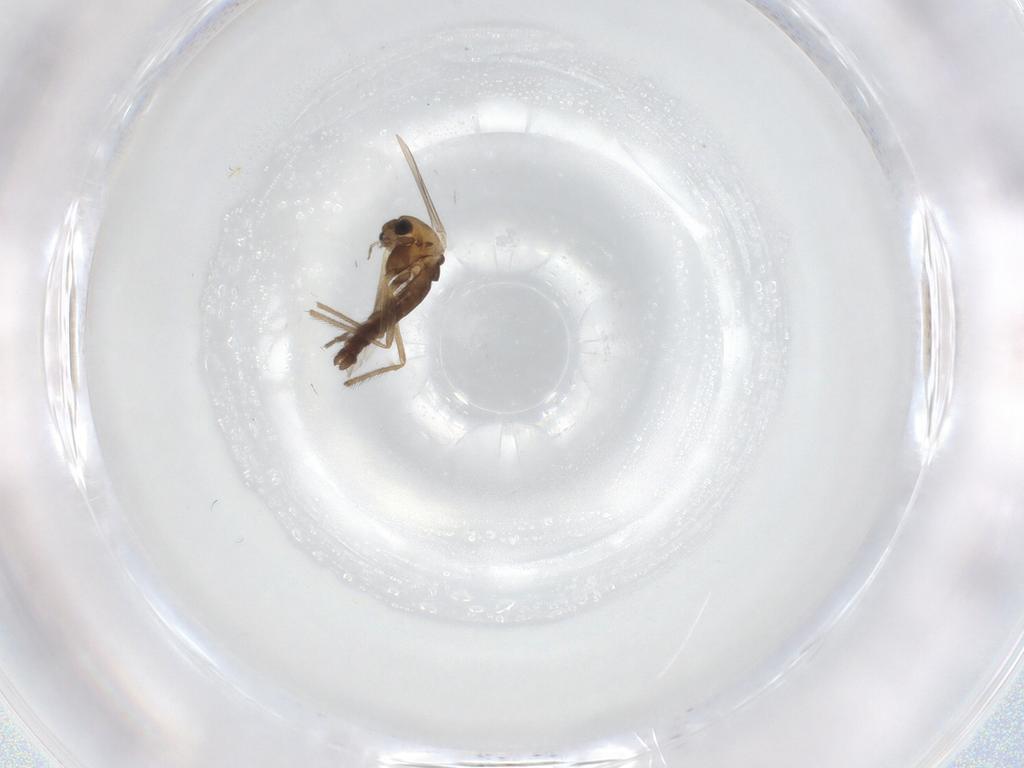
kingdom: Animalia
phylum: Arthropoda
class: Insecta
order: Diptera
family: Chironomidae
